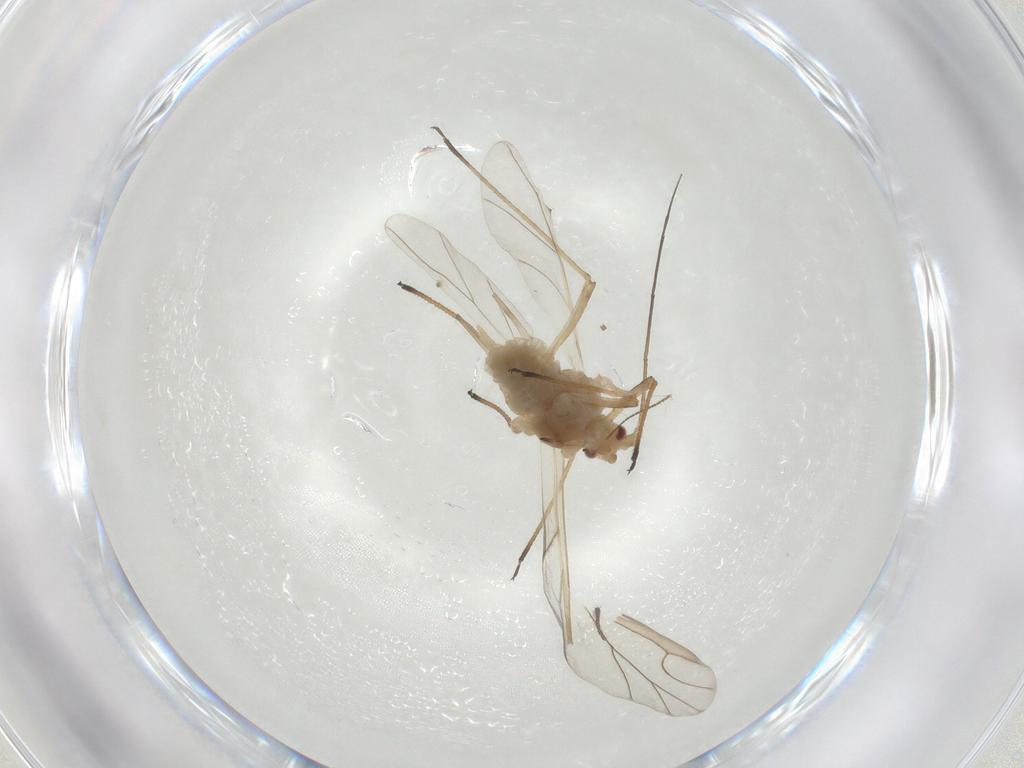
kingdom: Animalia
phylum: Arthropoda
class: Insecta
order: Hemiptera
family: Aphididae
